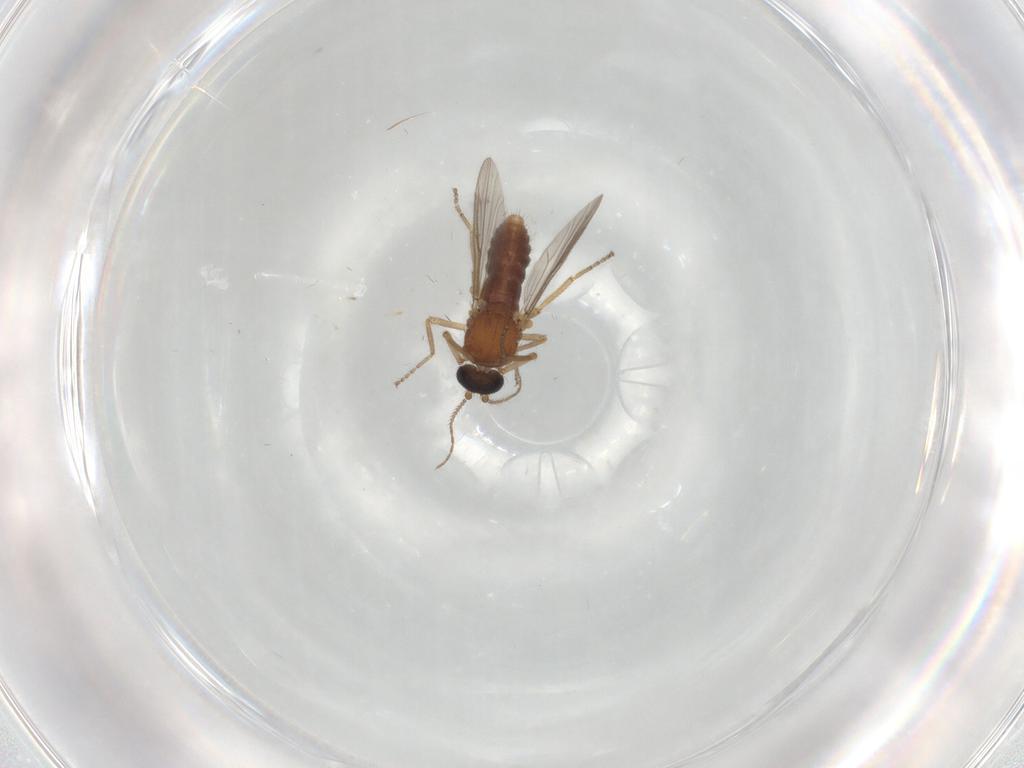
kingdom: Animalia
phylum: Arthropoda
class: Insecta
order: Diptera
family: Ceratopogonidae
